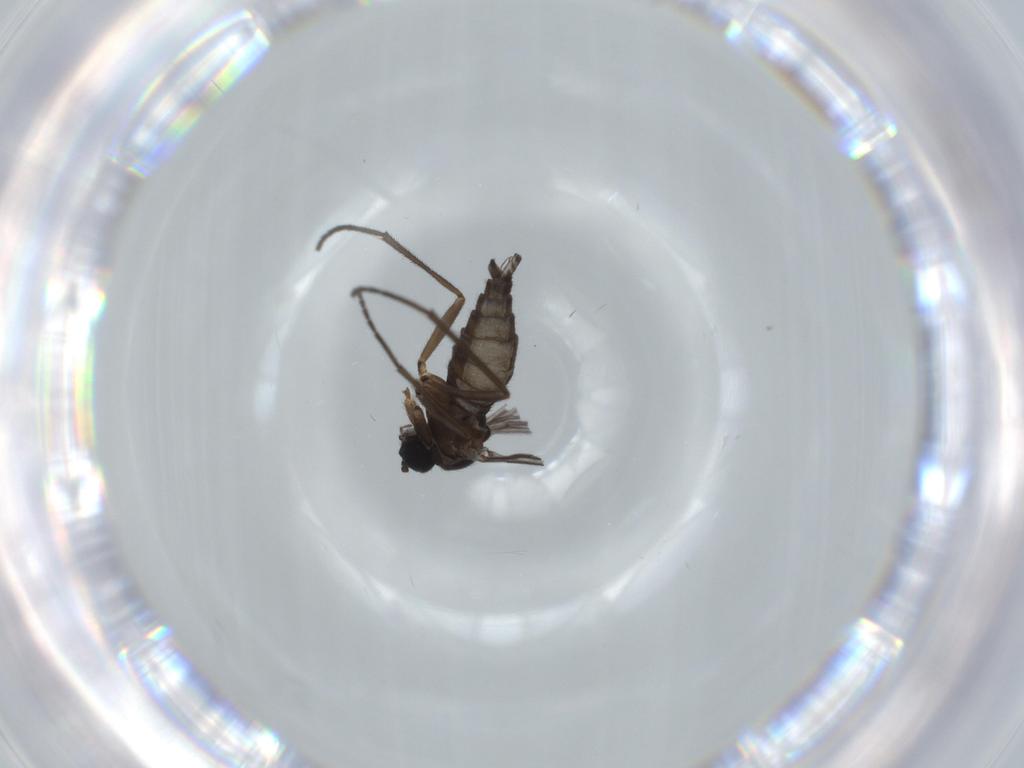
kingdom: Animalia
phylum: Arthropoda
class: Insecta
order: Diptera
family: Sciaridae
